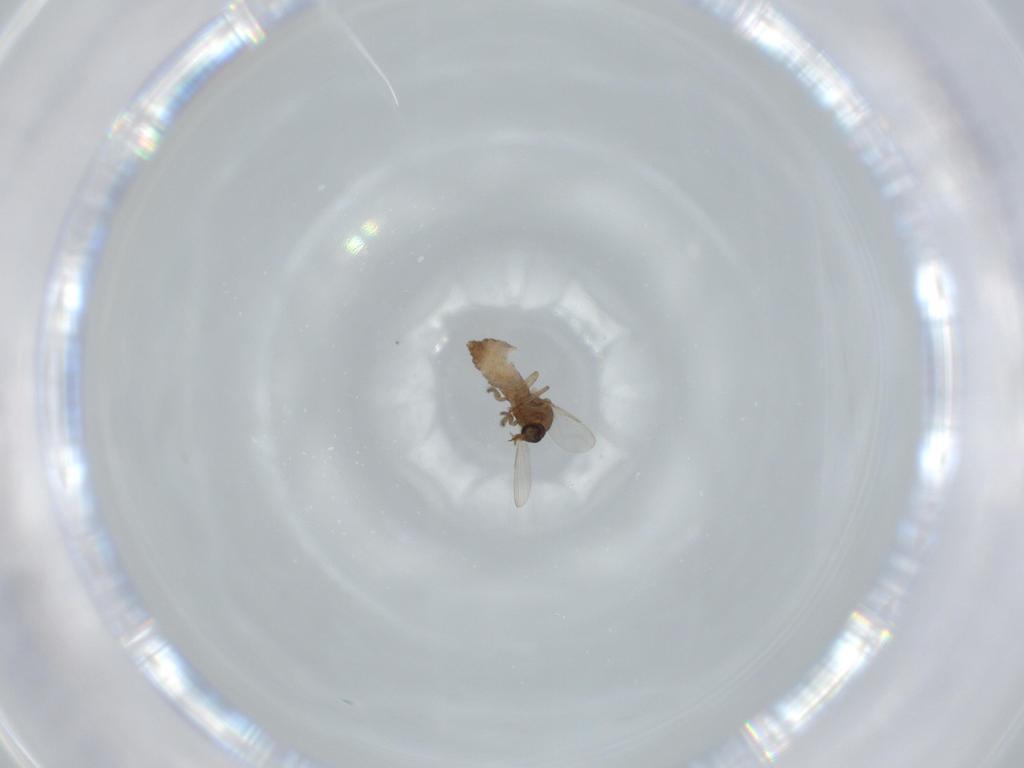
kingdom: Animalia
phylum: Arthropoda
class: Insecta
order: Diptera
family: Ceratopogonidae
